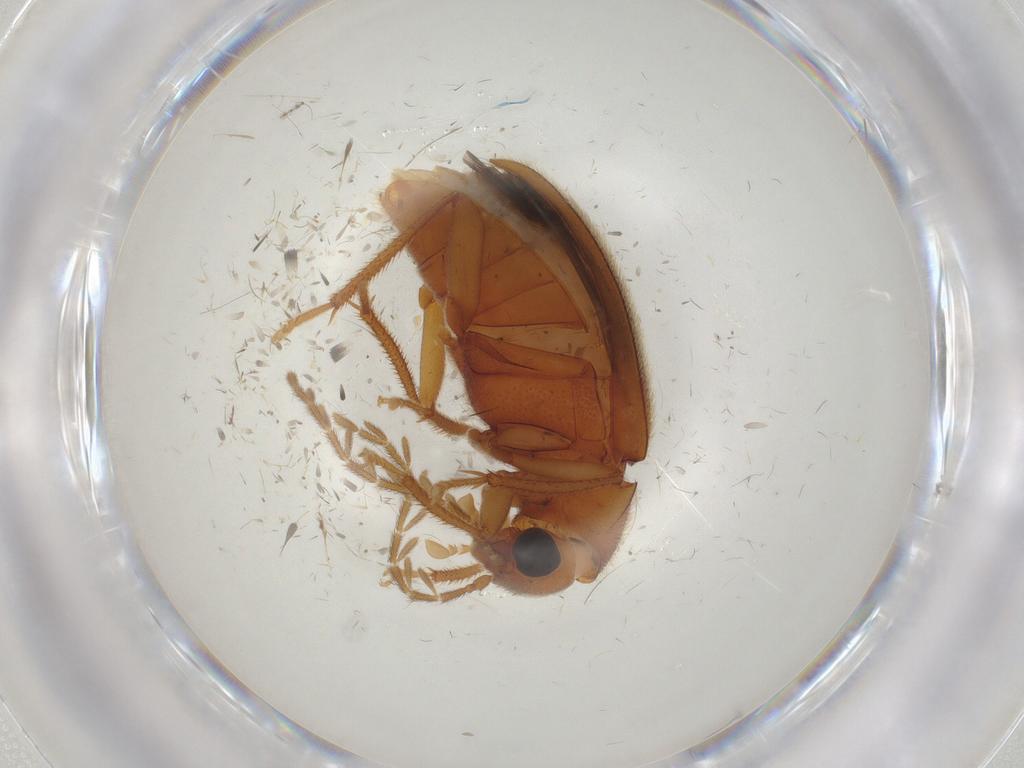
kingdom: Animalia
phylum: Arthropoda
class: Insecta
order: Coleoptera
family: Ptilodactylidae
